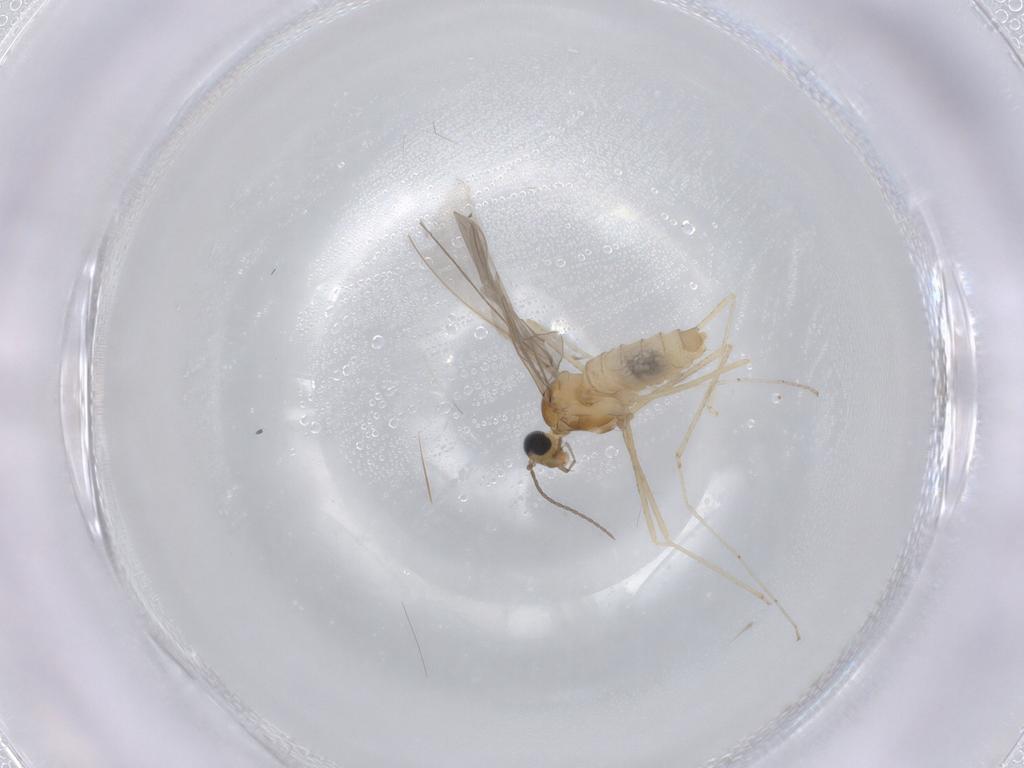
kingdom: Animalia
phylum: Arthropoda
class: Insecta
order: Diptera
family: Cecidomyiidae
